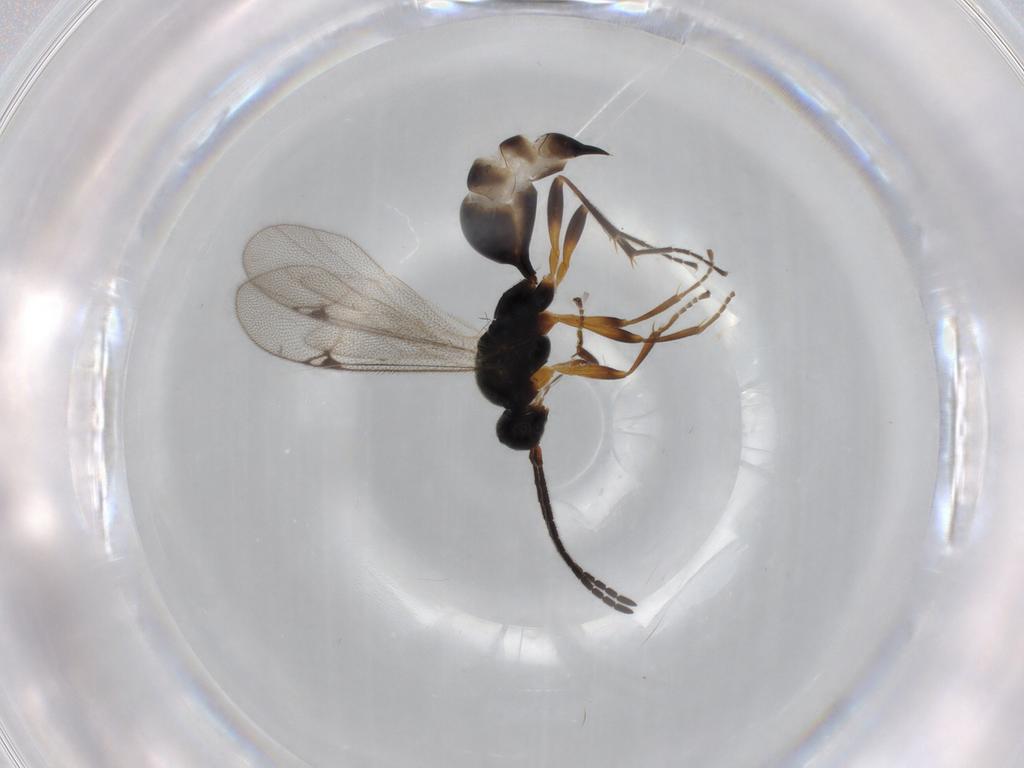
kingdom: Animalia
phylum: Arthropoda
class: Insecta
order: Hymenoptera
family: Proctotrupidae
